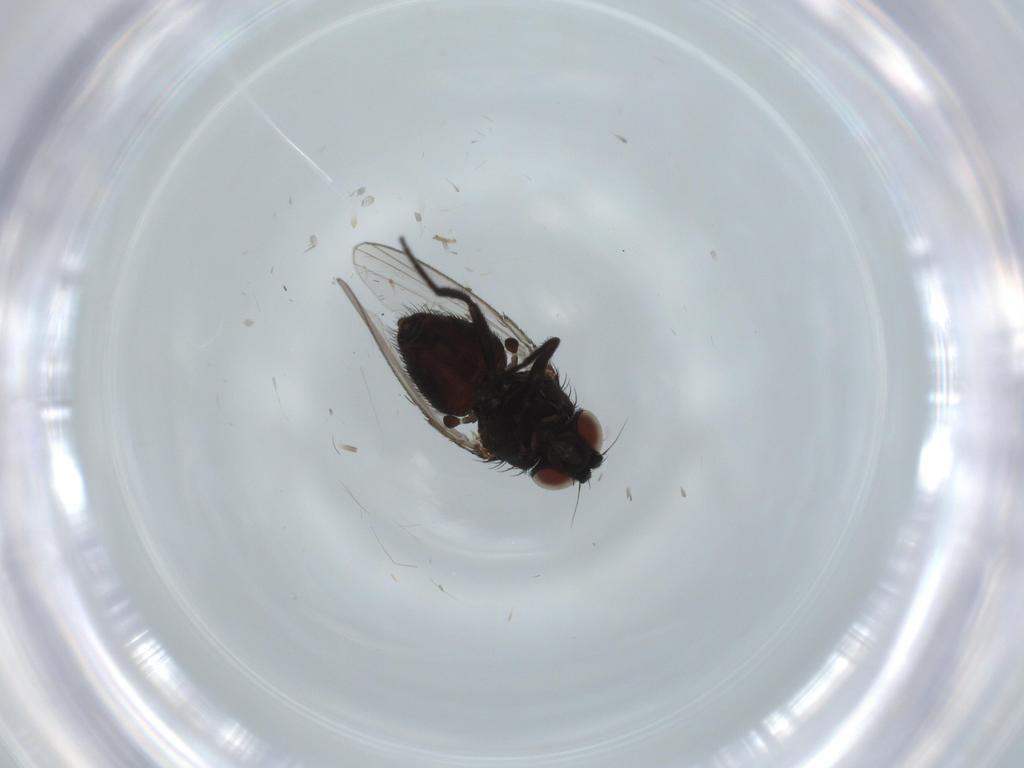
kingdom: Animalia
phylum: Arthropoda
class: Insecta
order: Diptera
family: Milichiidae
